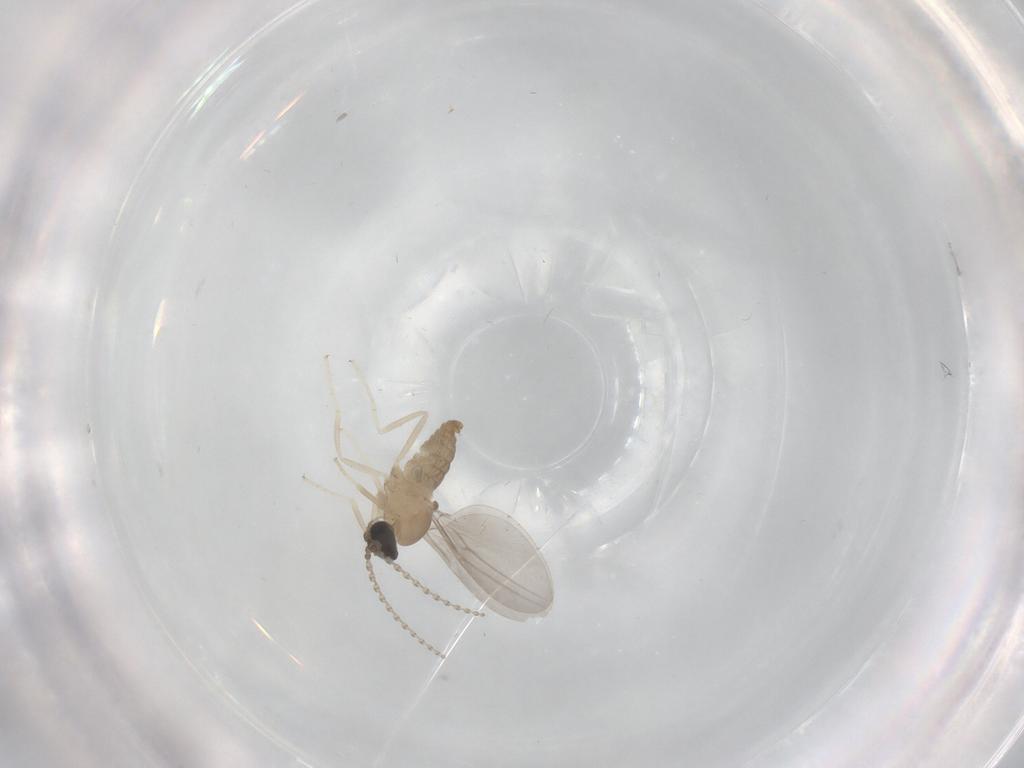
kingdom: Animalia
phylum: Arthropoda
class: Insecta
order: Diptera
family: Cecidomyiidae
